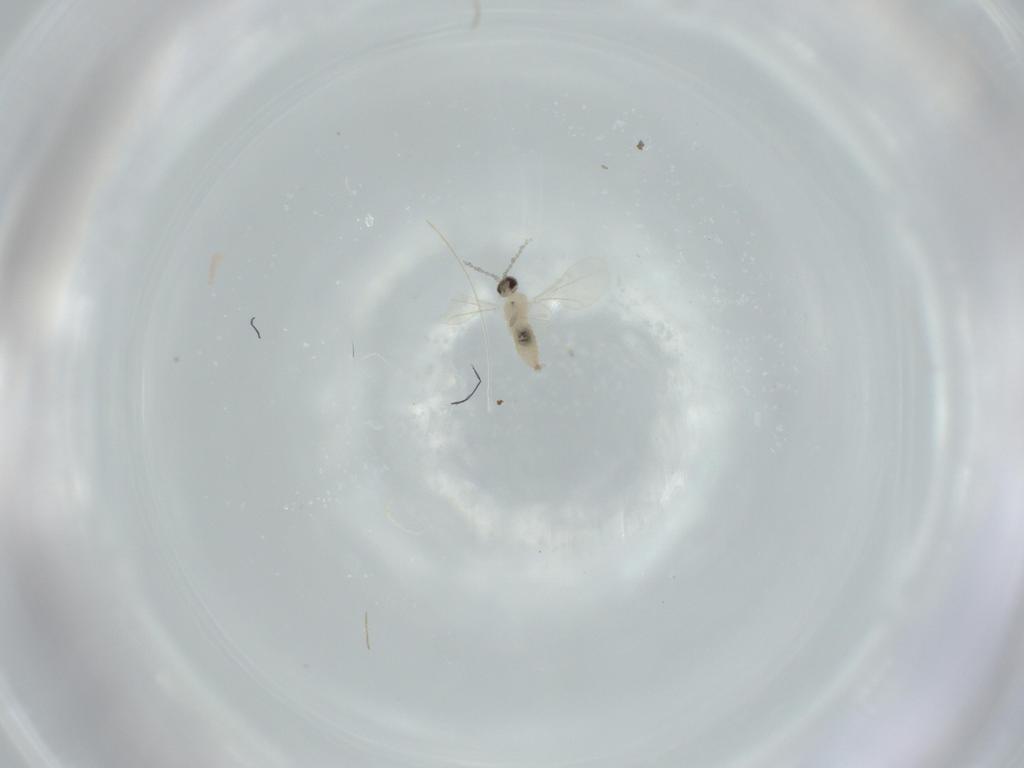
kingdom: Animalia
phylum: Arthropoda
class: Insecta
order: Diptera
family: Cecidomyiidae
